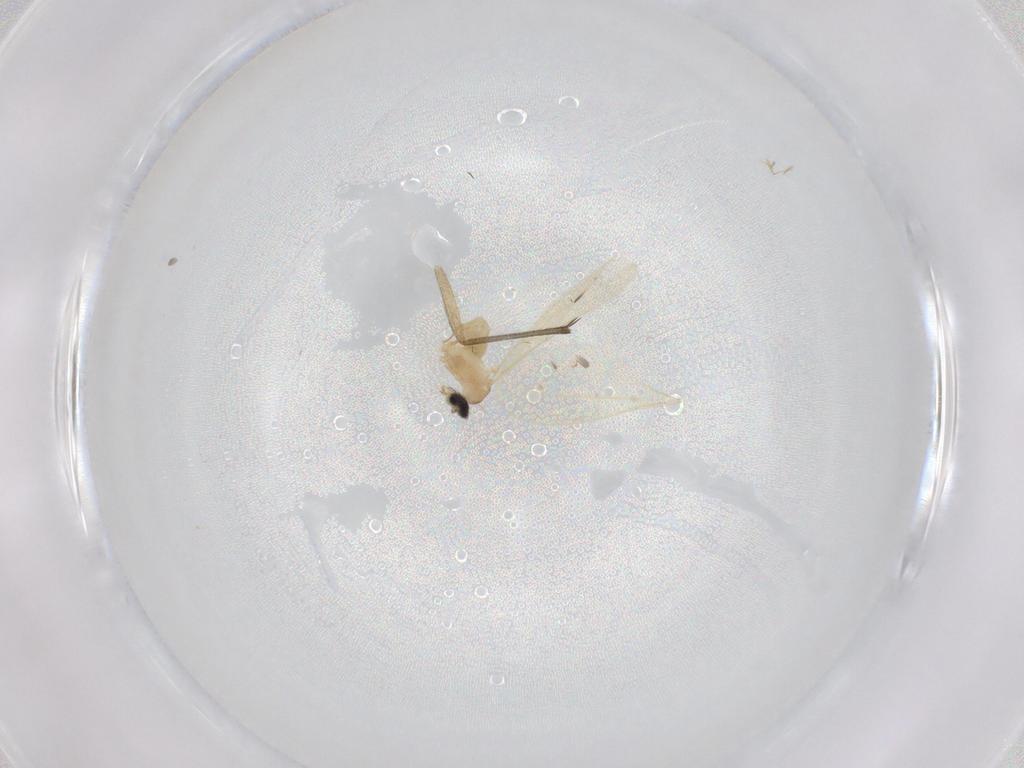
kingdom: Animalia
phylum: Arthropoda
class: Insecta
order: Diptera
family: Cecidomyiidae
